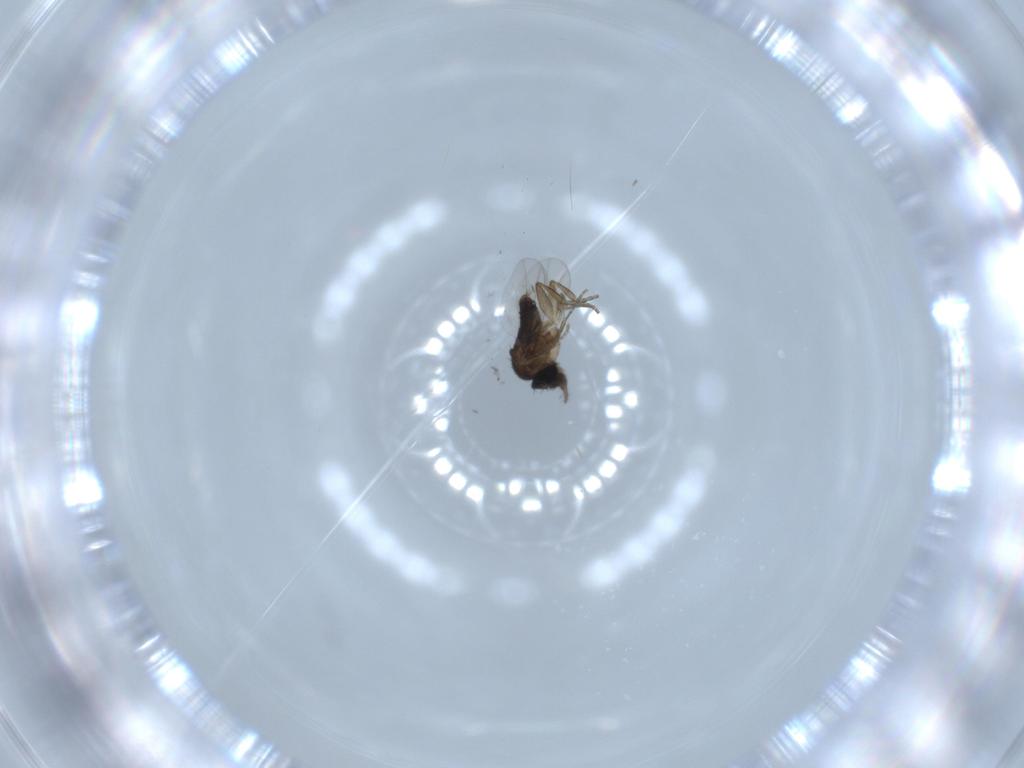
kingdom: Animalia
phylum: Arthropoda
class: Insecta
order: Diptera
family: Phoridae
